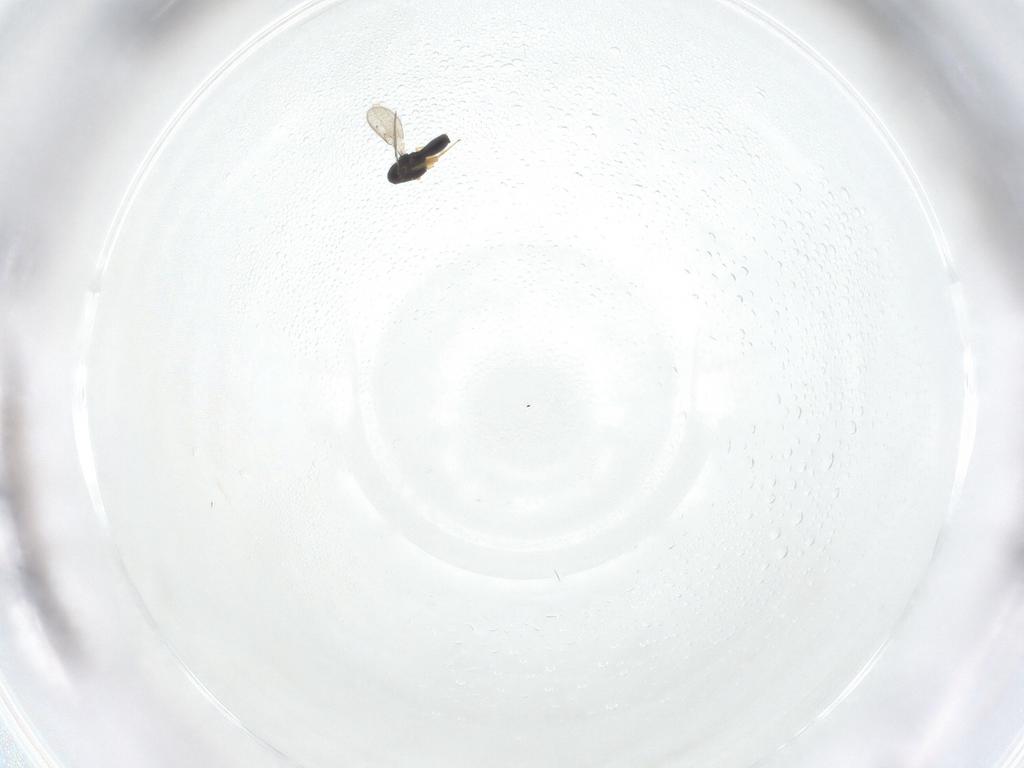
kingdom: Animalia
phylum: Arthropoda
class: Insecta
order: Hymenoptera
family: Scelionidae
